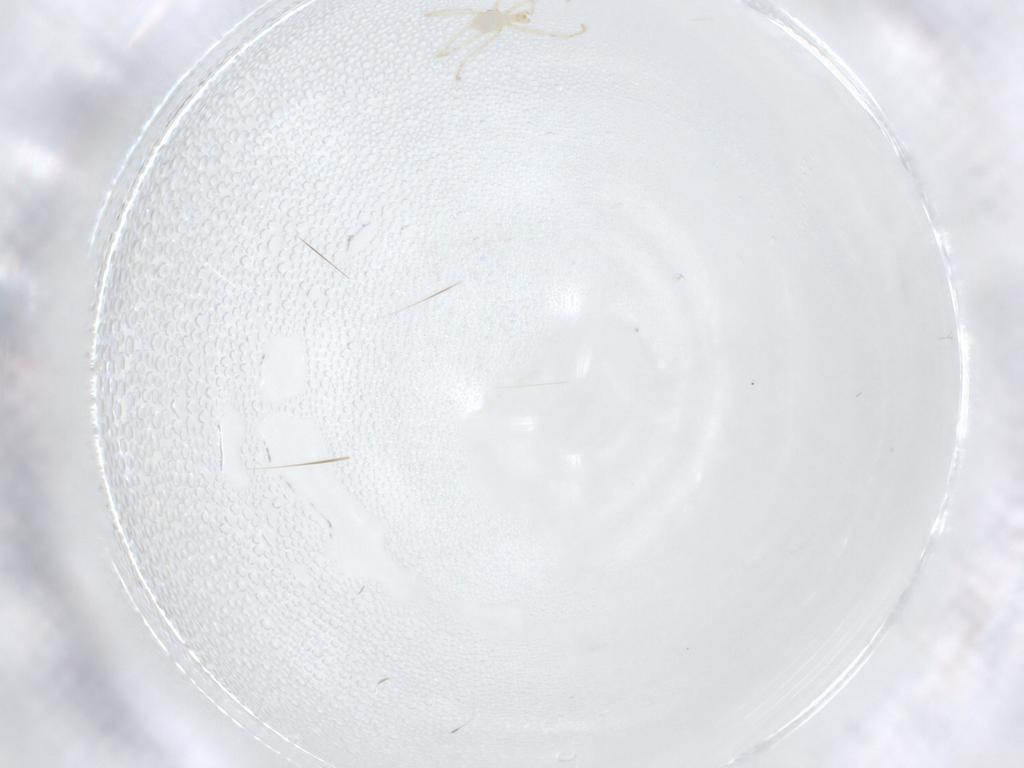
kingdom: Animalia
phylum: Arthropoda
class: Arachnida
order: Trombidiformes
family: Erythraeidae
